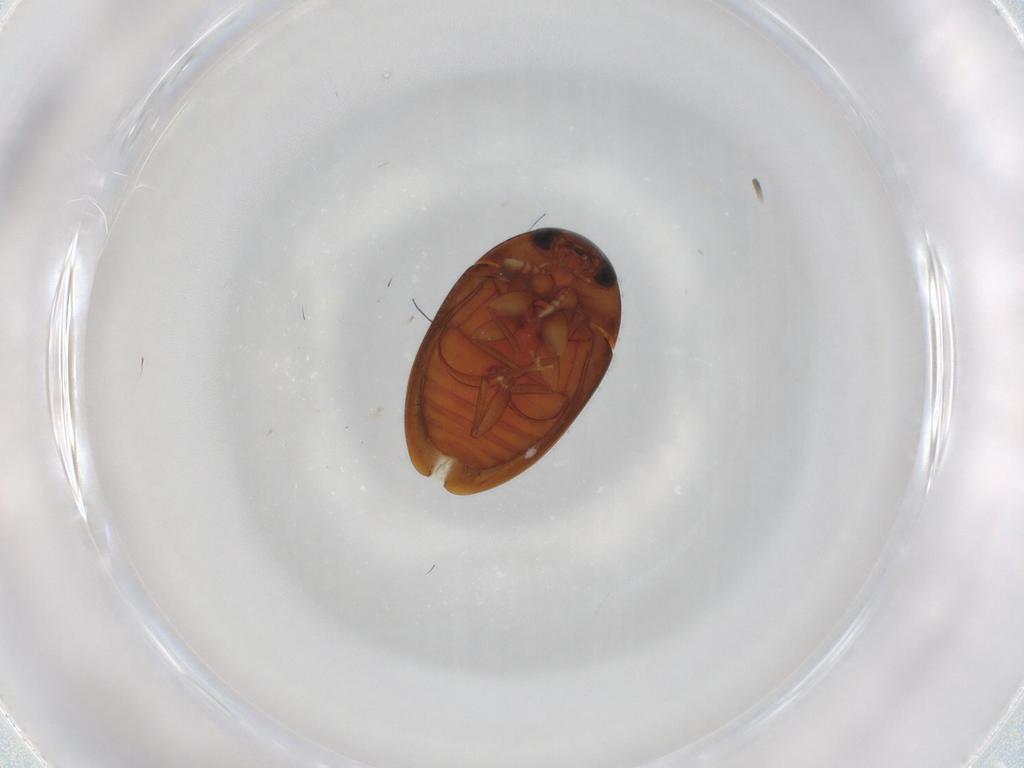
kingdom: Animalia
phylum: Arthropoda
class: Insecta
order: Coleoptera
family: Phalacridae
